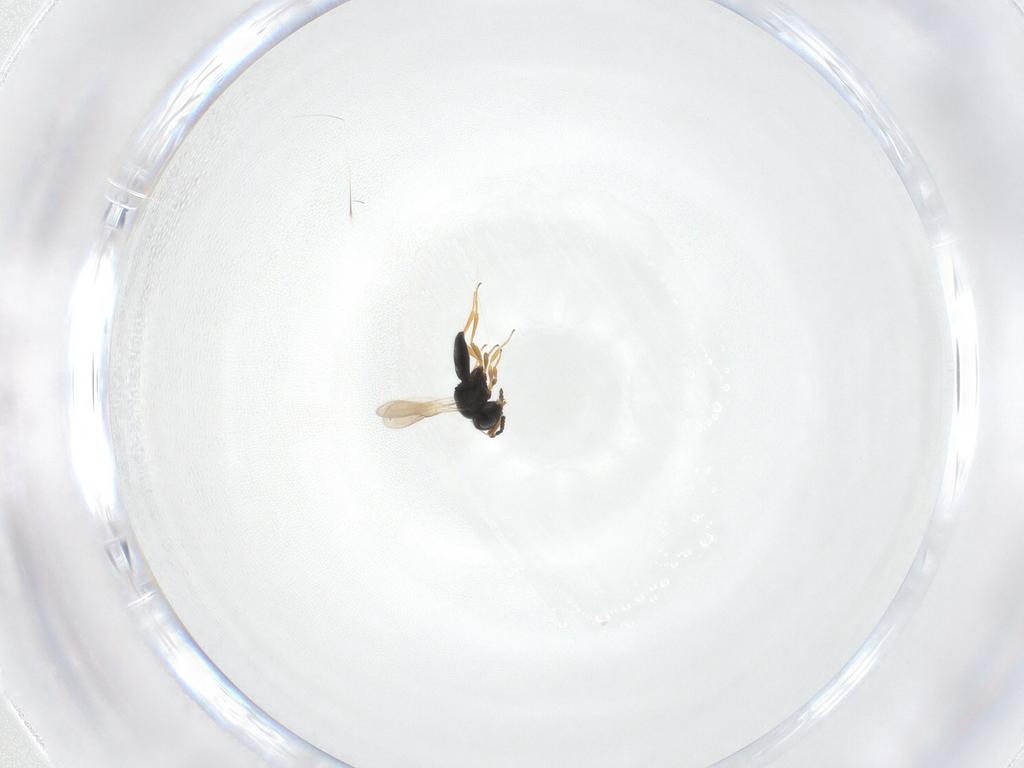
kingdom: Animalia
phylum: Arthropoda
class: Insecta
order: Hymenoptera
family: Scelionidae
